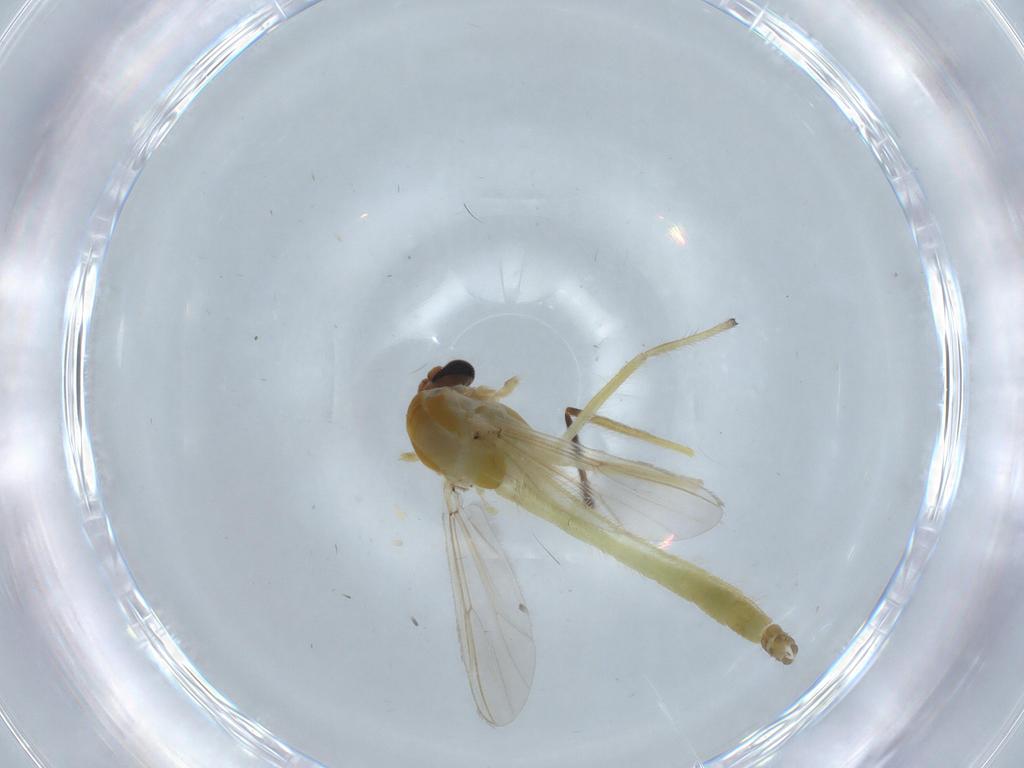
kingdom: Animalia
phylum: Arthropoda
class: Insecta
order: Diptera
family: Chironomidae
